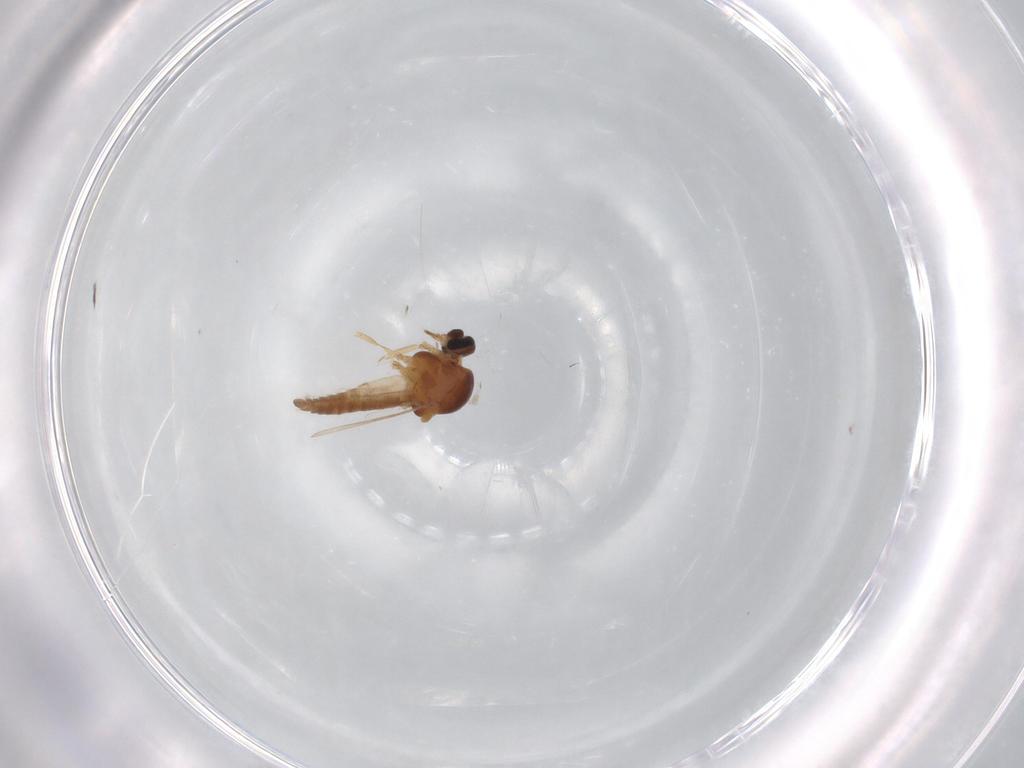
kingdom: Animalia
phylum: Arthropoda
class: Insecta
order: Diptera
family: Ceratopogonidae
